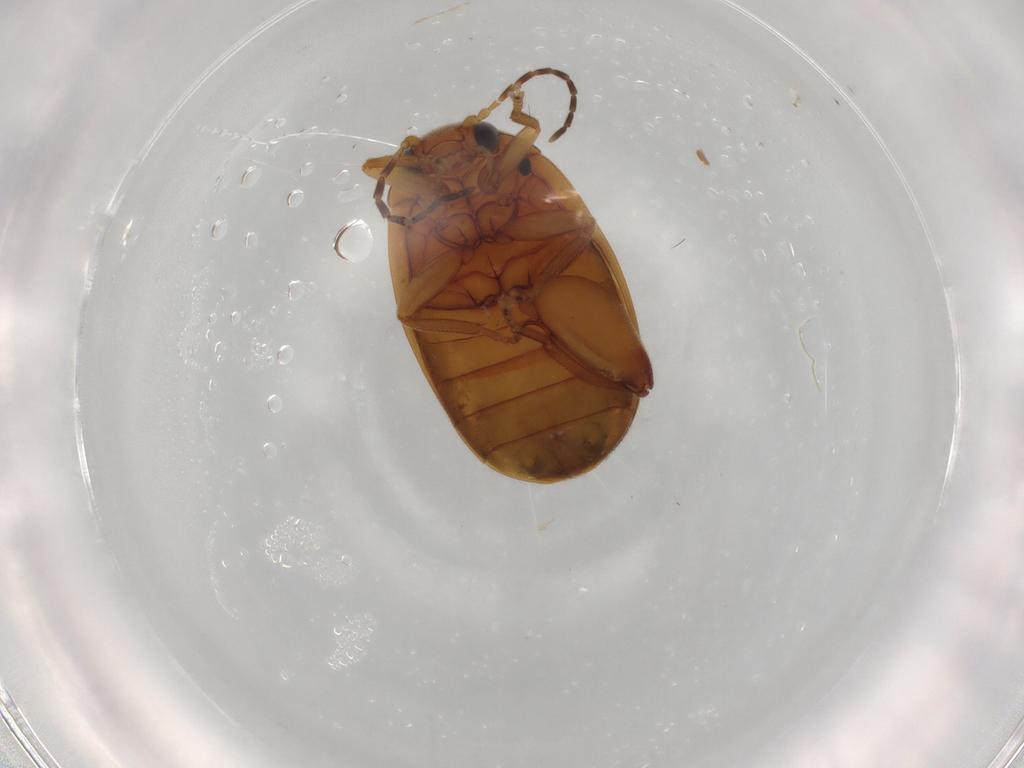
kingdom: Animalia
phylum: Arthropoda
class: Insecta
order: Coleoptera
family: Scirtidae
